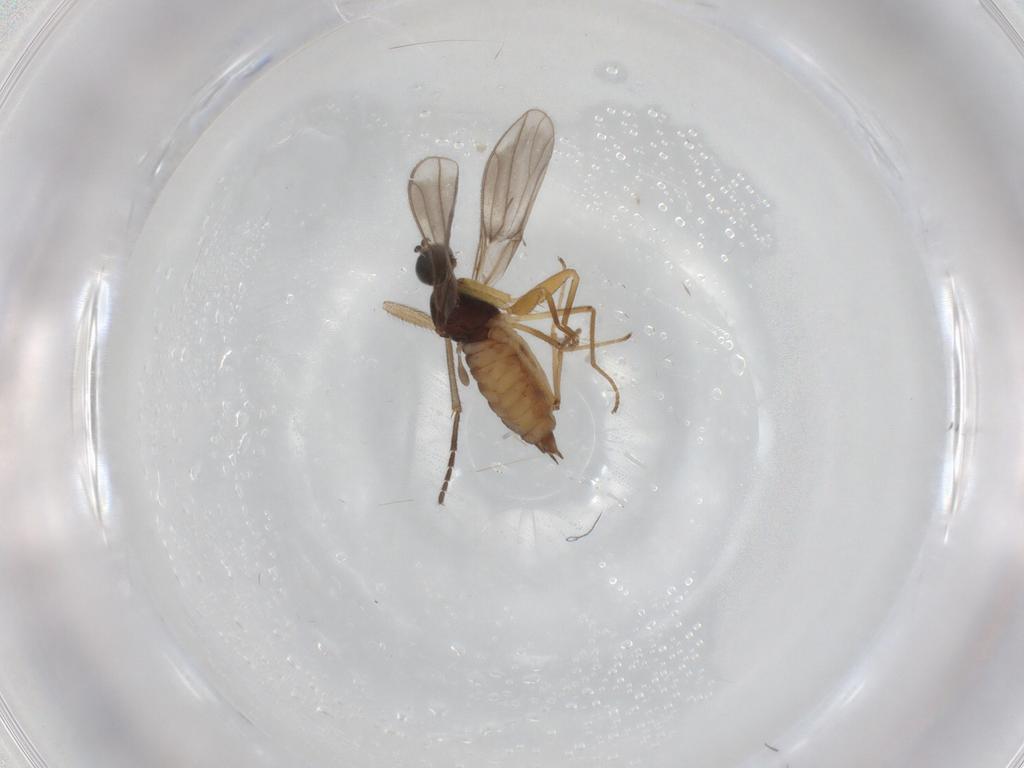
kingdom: Animalia
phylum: Arthropoda
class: Insecta
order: Diptera
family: Empididae
